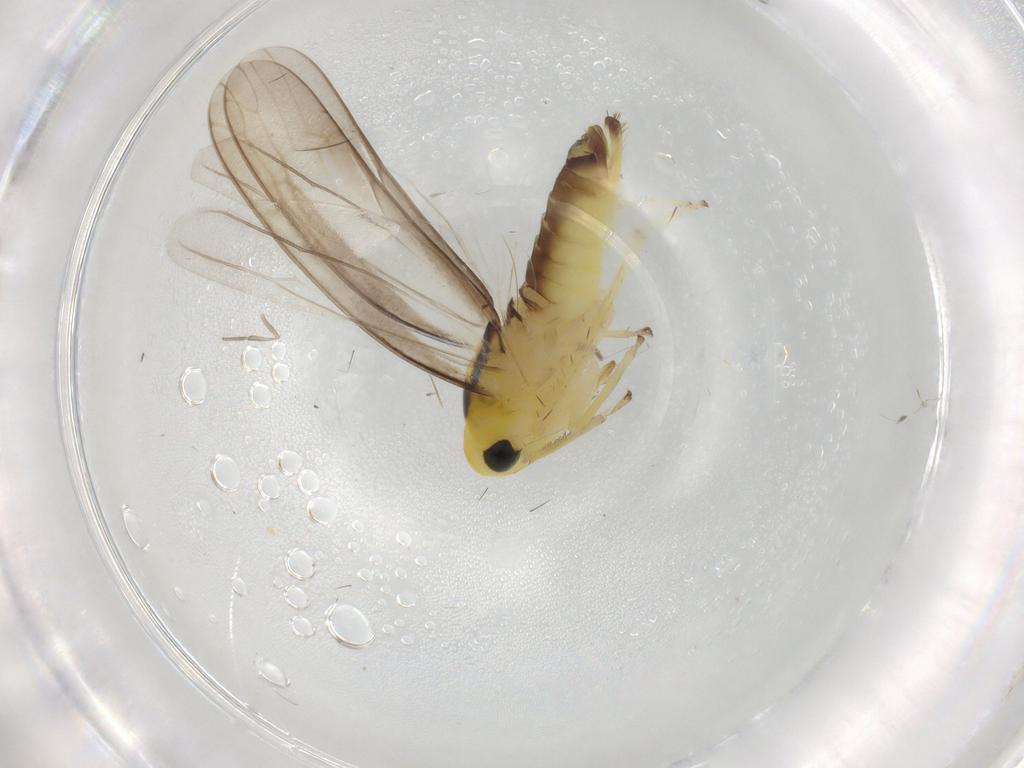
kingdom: Animalia
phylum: Arthropoda
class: Insecta
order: Hemiptera
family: Cicadellidae
